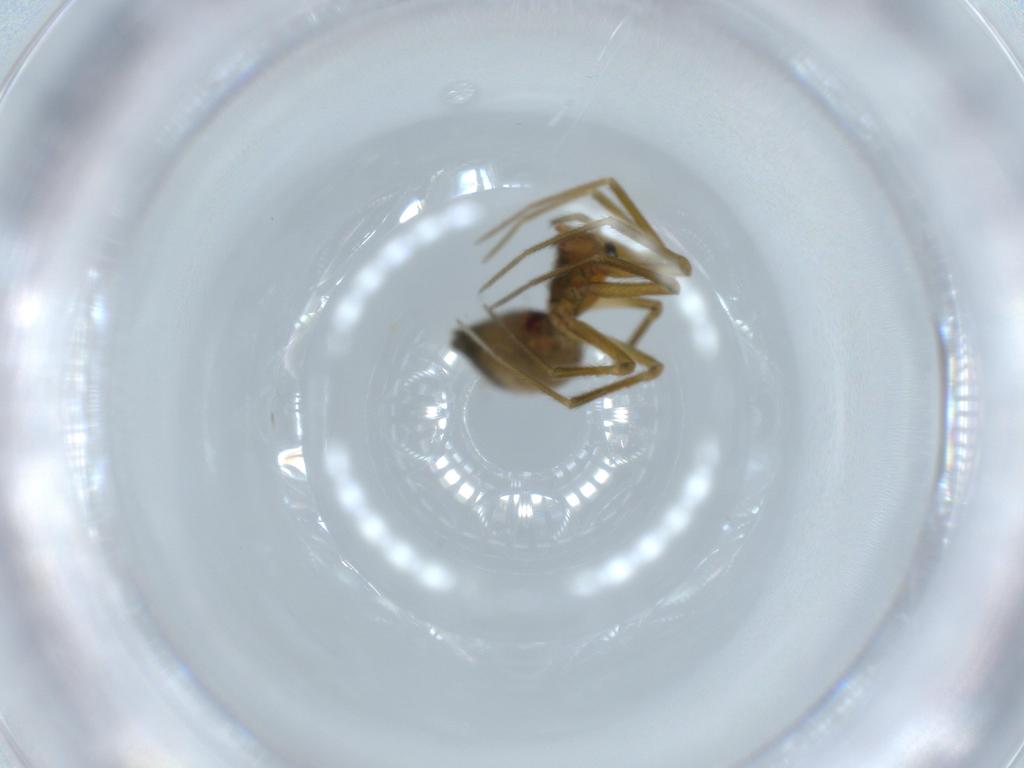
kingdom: Animalia
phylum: Arthropoda
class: Arachnida
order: Araneae
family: Linyphiidae
